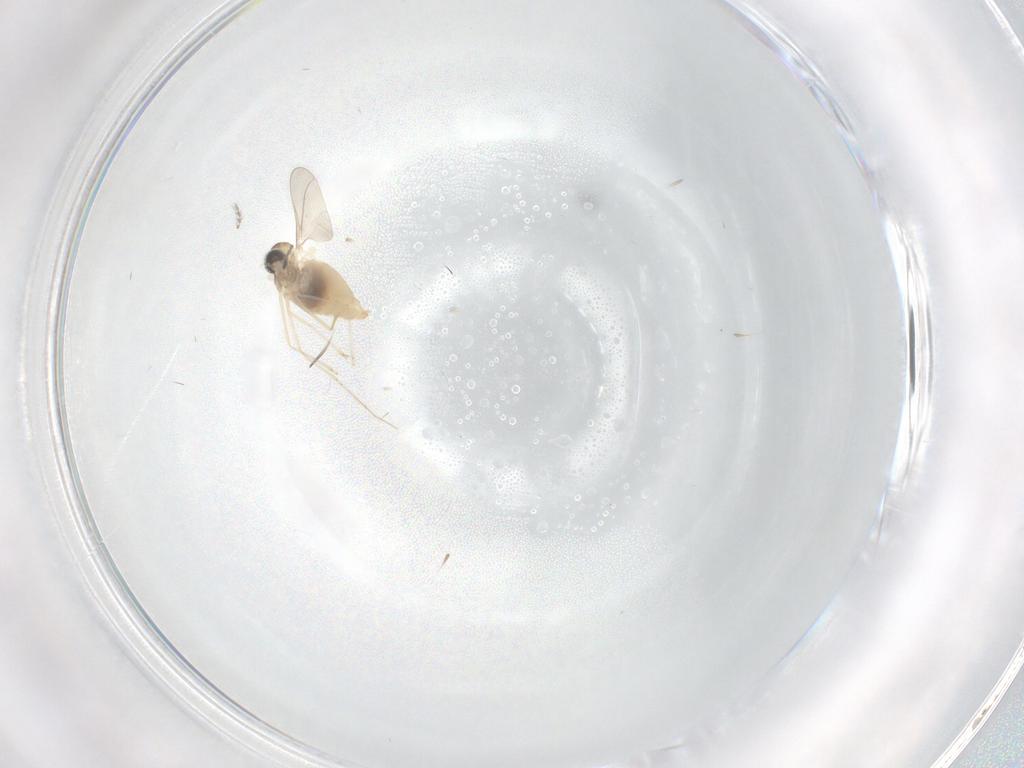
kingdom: Animalia
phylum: Arthropoda
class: Insecta
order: Diptera
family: Cecidomyiidae
